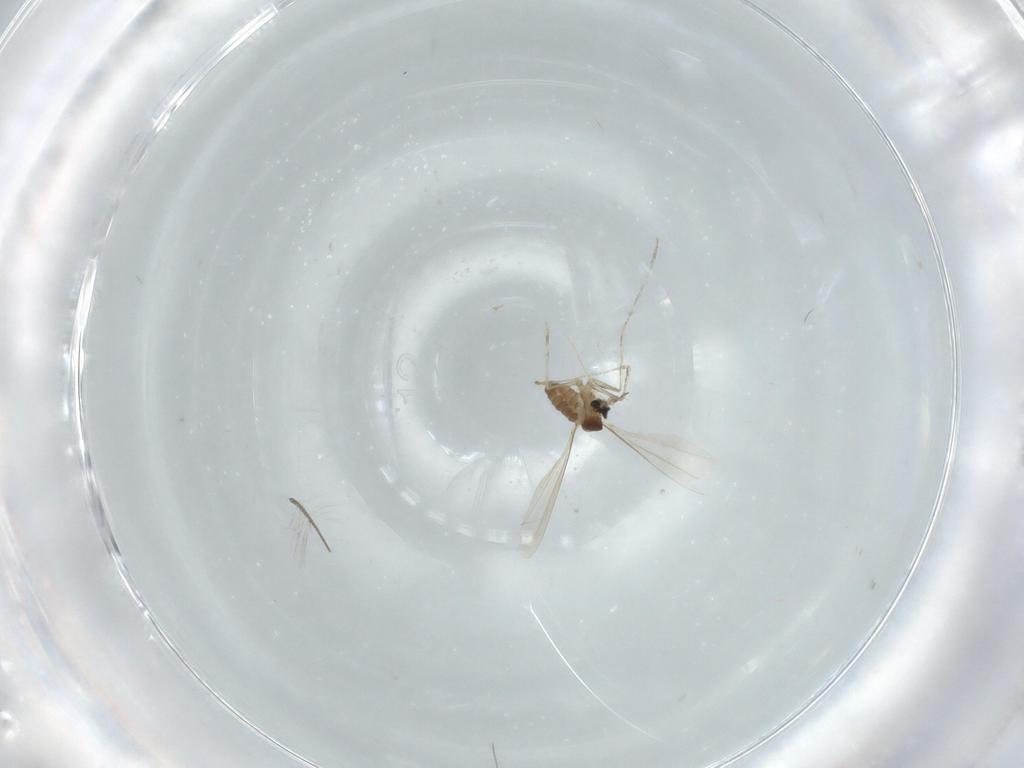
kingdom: Animalia
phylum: Arthropoda
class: Insecta
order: Diptera
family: Cecidomyiidae
